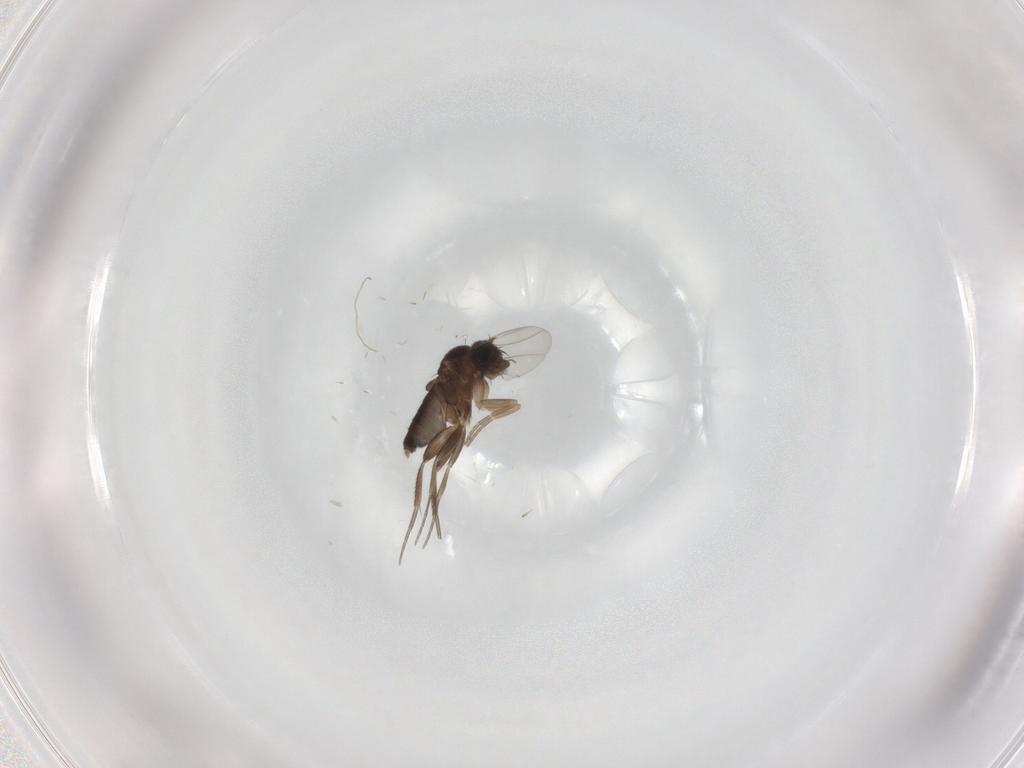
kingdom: Animalia
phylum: Arthropoda
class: Insecta
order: Diptera
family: Phoridae
